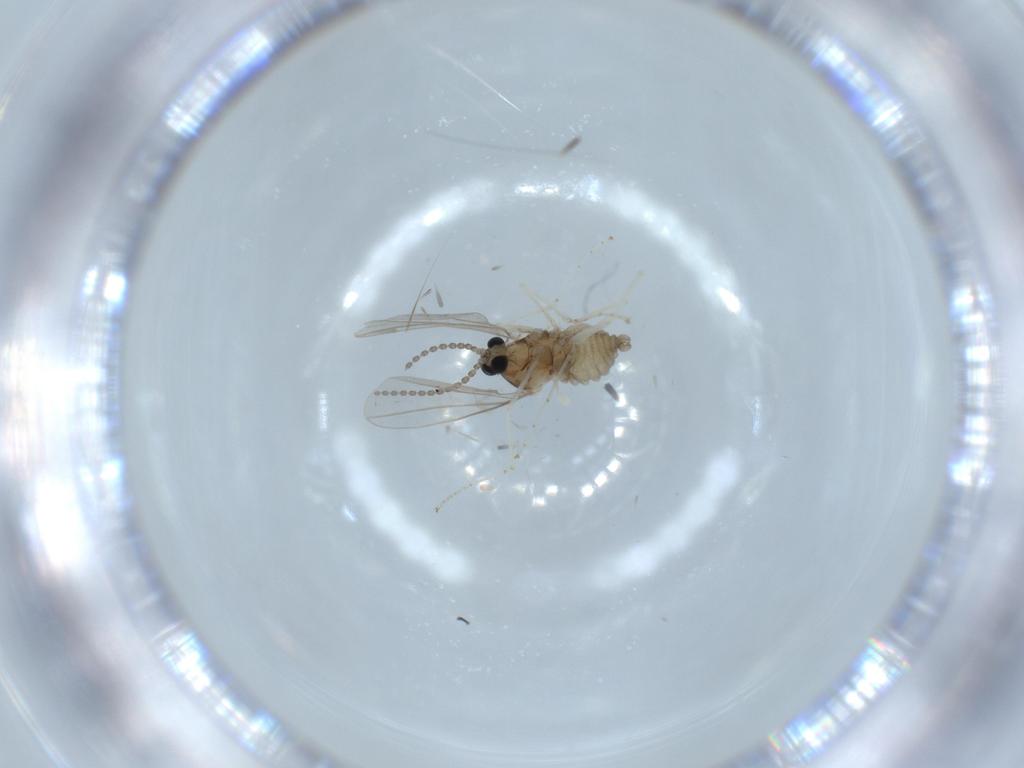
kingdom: Animalia
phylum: Arthropoda
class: Insecta
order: Diptera
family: Cecidomyiidae
